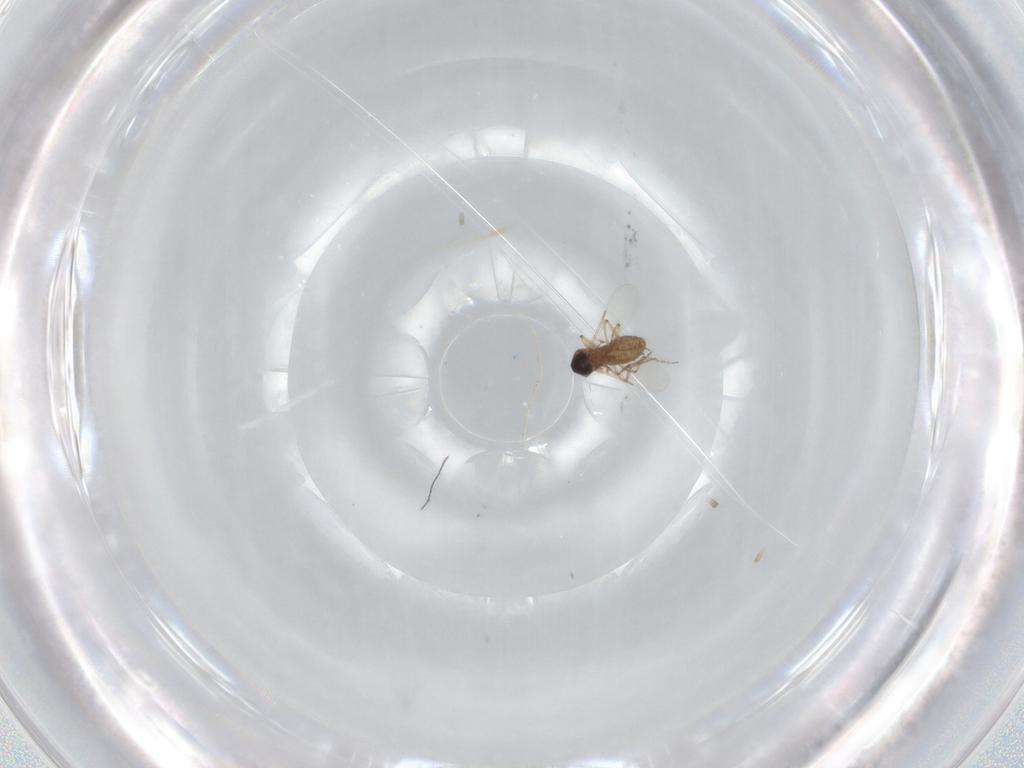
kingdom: Animalia
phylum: Arthropoda
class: Insecta
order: Diptera
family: Ceratopogonidae
